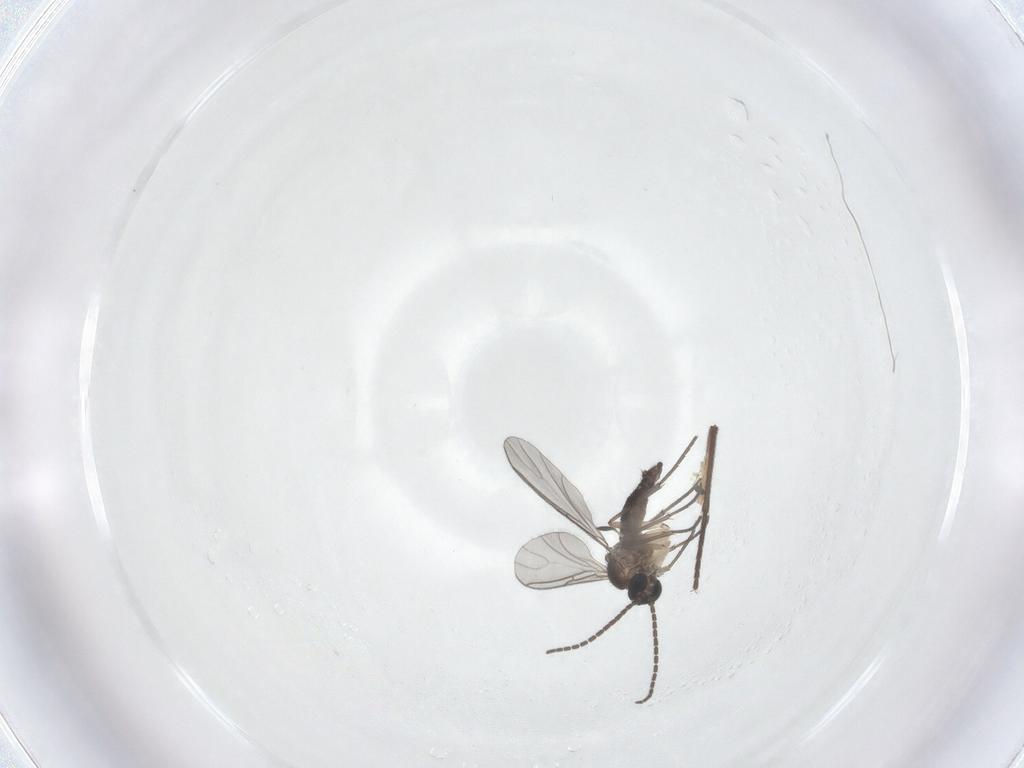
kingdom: Animalia
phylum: Arthropoda
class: Insecta
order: Diptera
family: Sciaridae
